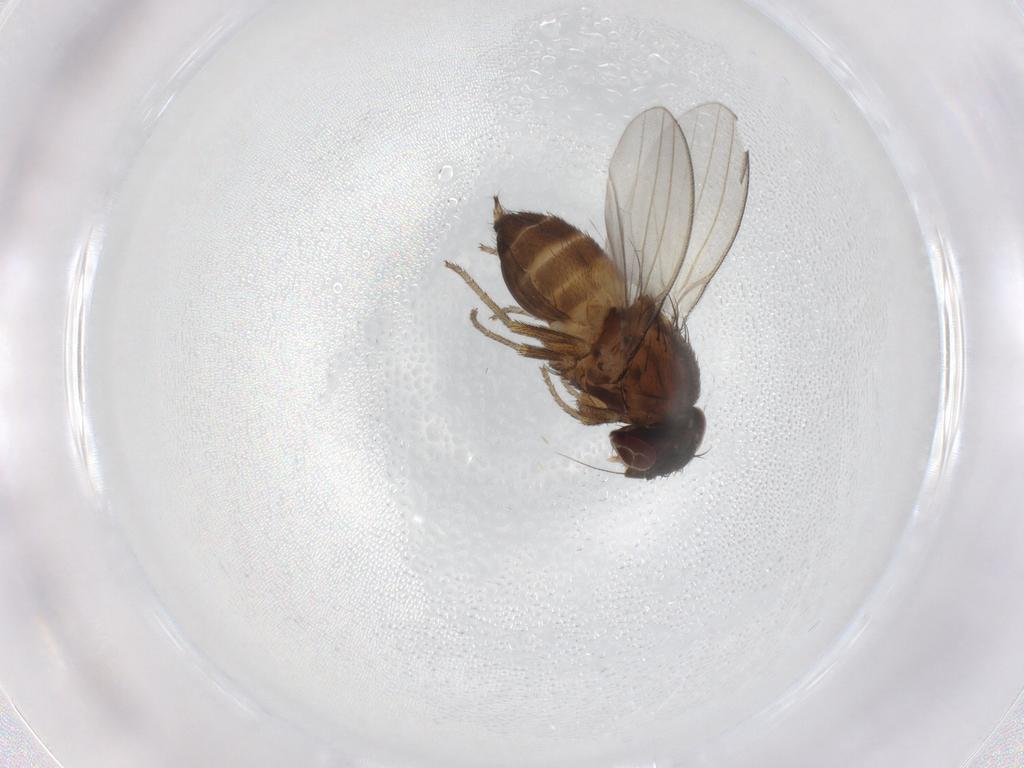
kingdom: Animalia
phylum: Arthropoda
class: Insecta
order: Diptera
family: Milichiidae
